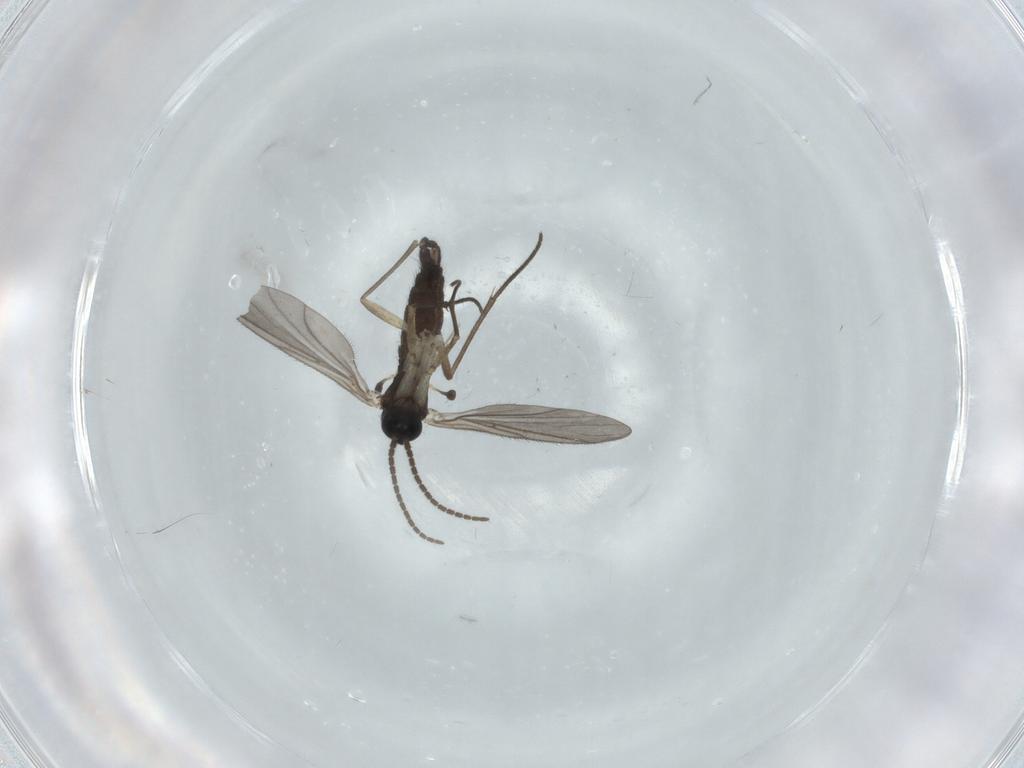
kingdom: Animalia
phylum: Arthropoda
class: Insecta
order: Diptera
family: Sciaridae
